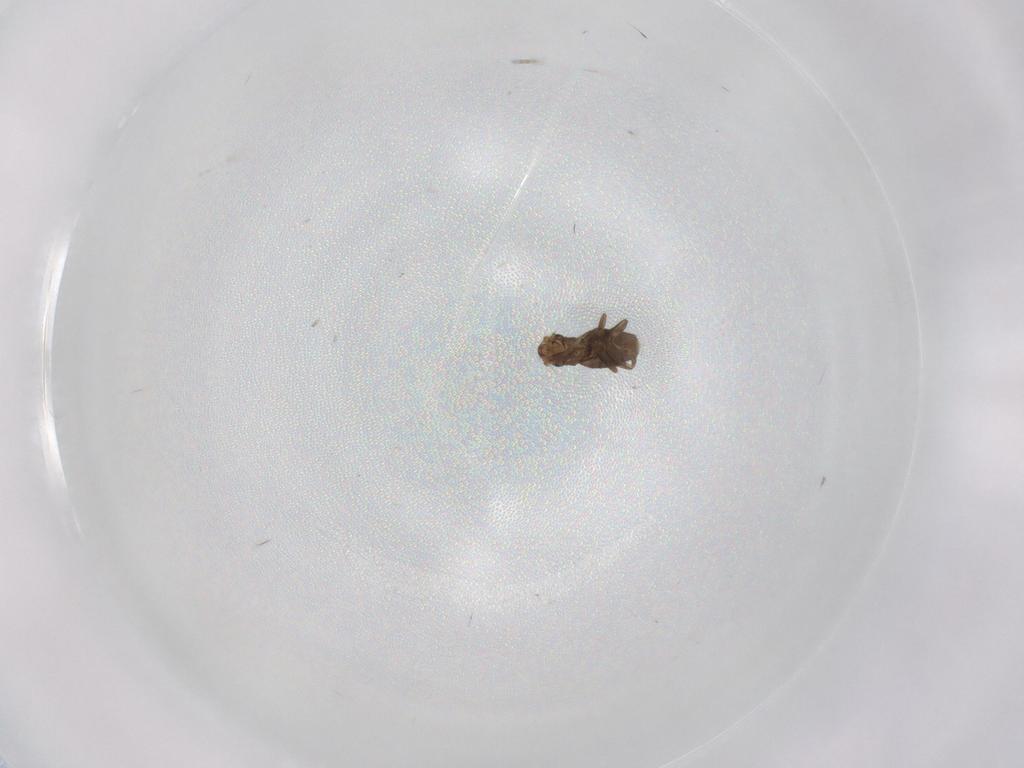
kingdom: Animalia
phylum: Arthropoda
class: Insecta
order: Diptera
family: Phoridae
